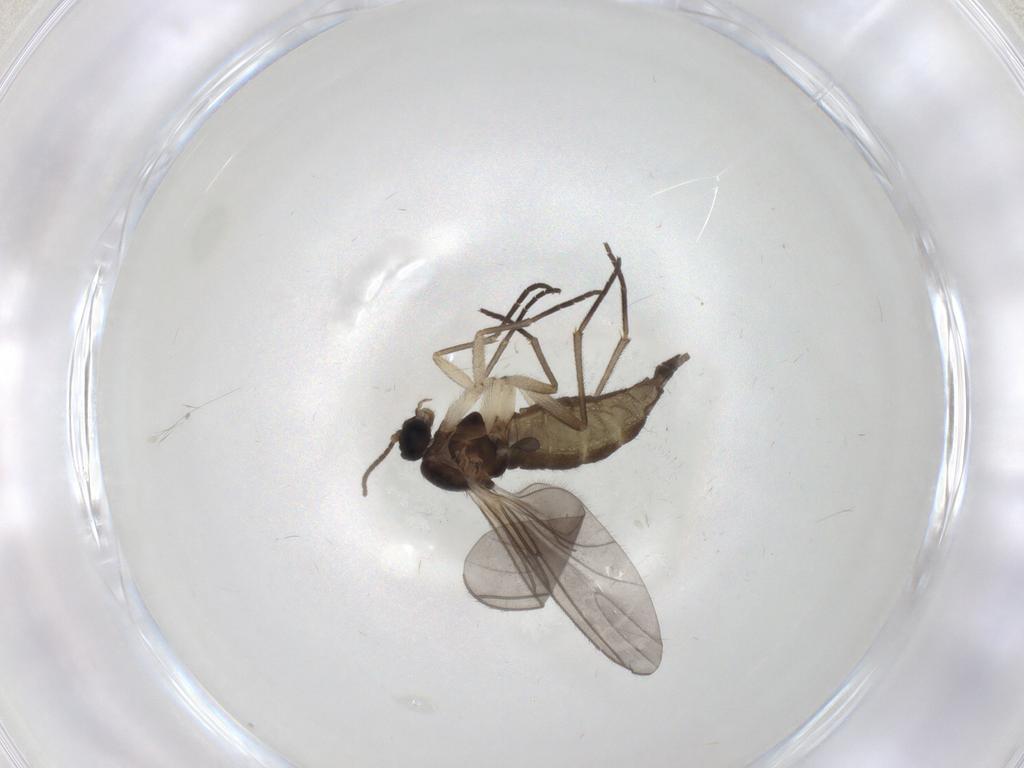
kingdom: Animalia
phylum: Arthropoda
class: Insecta
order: Diptera
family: Sciaridae
